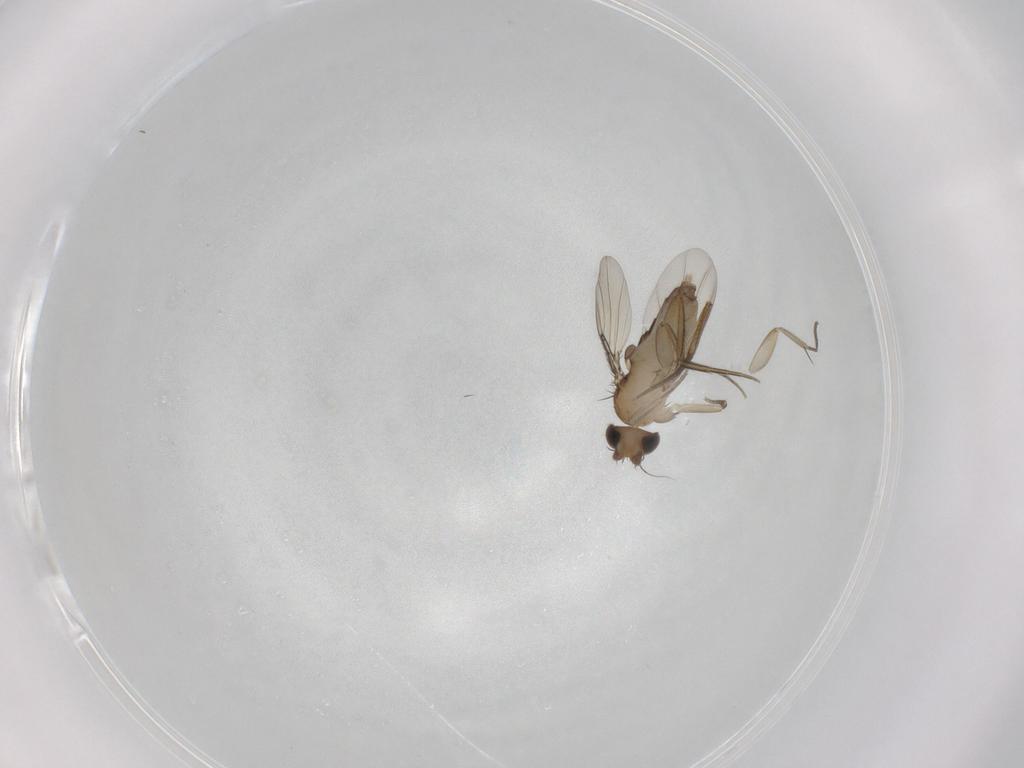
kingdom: Animalia
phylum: Arthropoda
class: Insecta
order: Diptera
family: Phoridae
